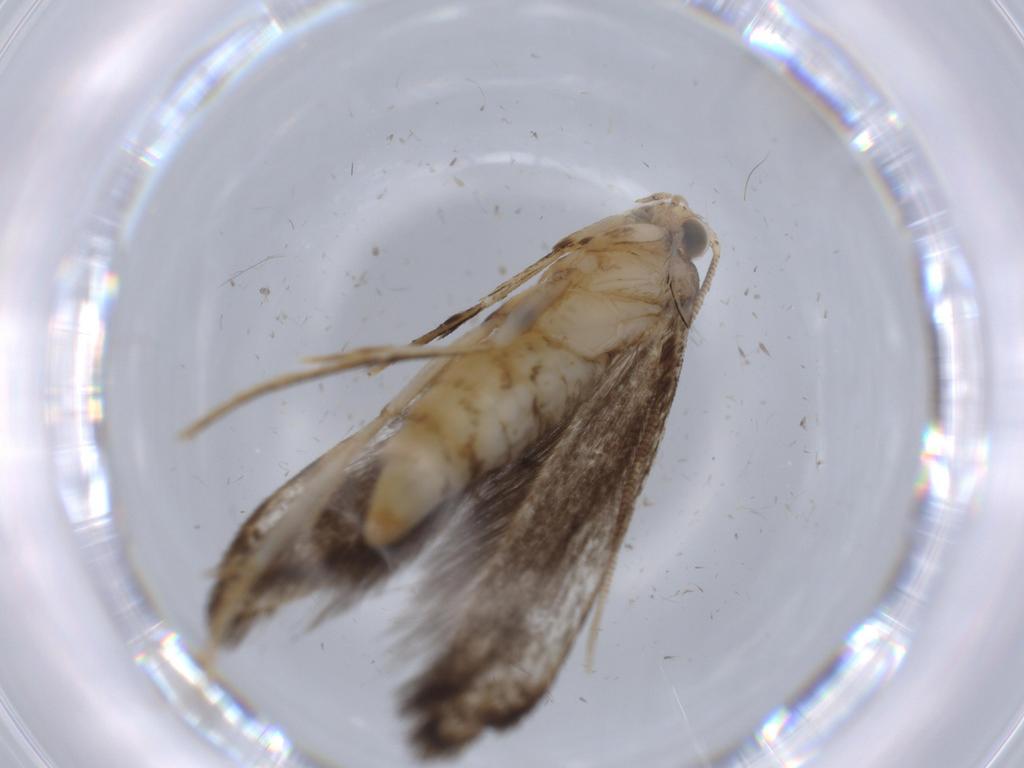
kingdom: Animalia
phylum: Arthropoda
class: Insecta
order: Lepidoptera
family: Tineidae
